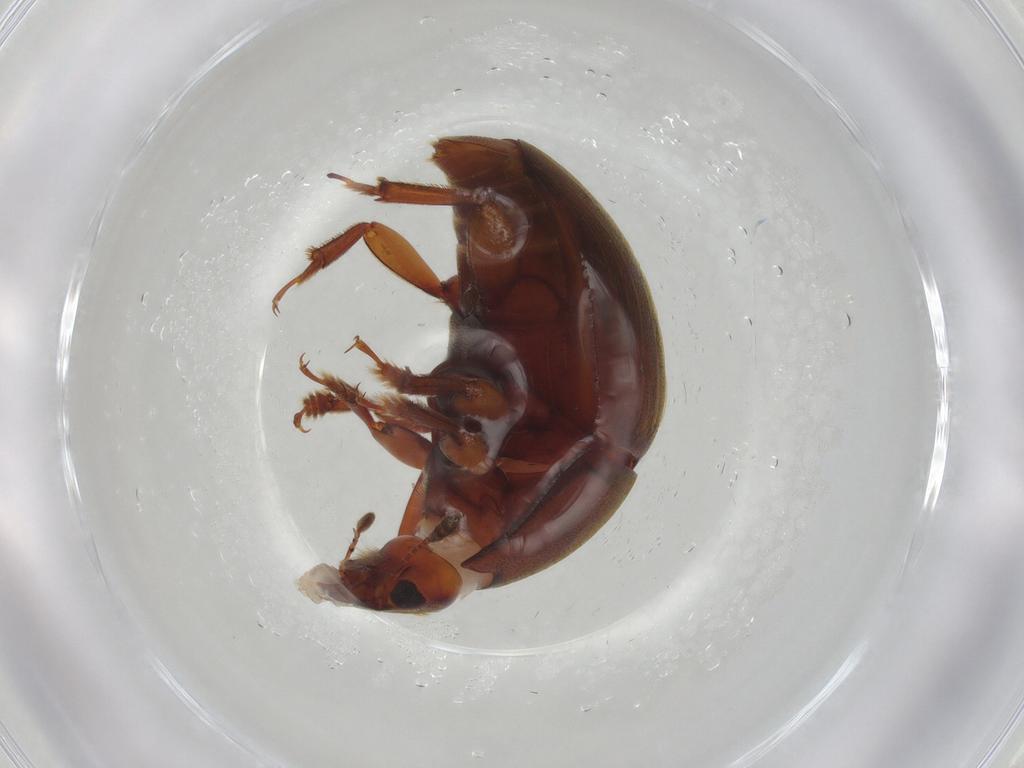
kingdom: Animalia
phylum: Arthropoda
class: Insecta
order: Coleoptera
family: Nitidulidae
